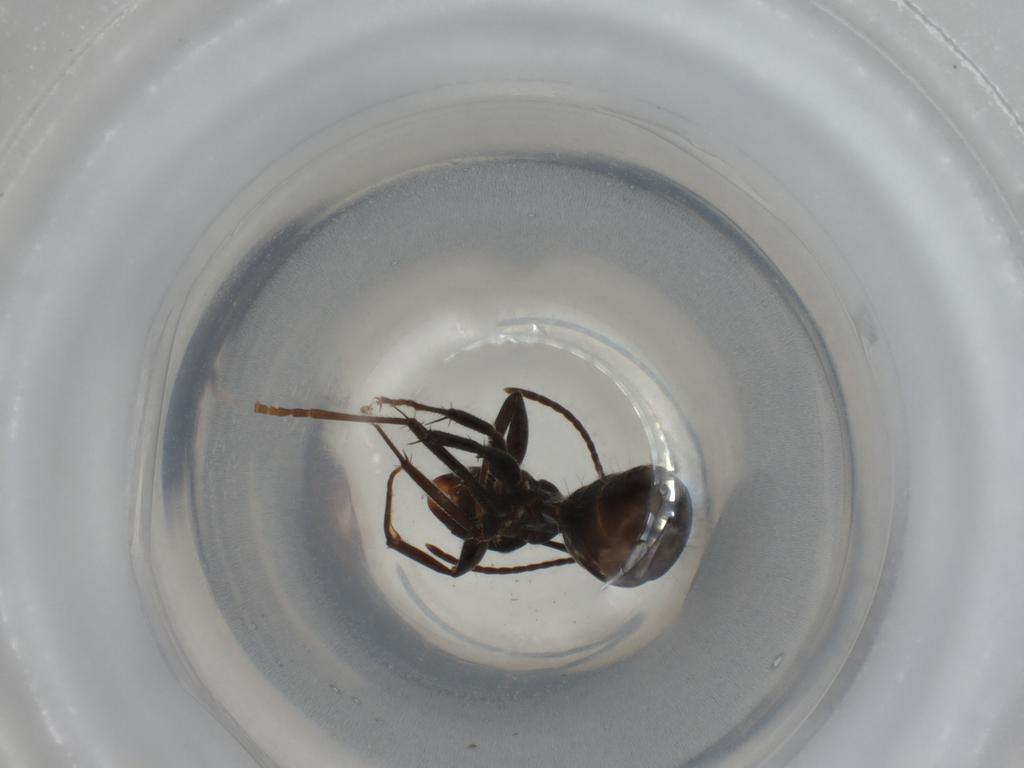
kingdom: Animalia
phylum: Arthropoda
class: Insecta
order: Hymenoptera
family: Formicidae
